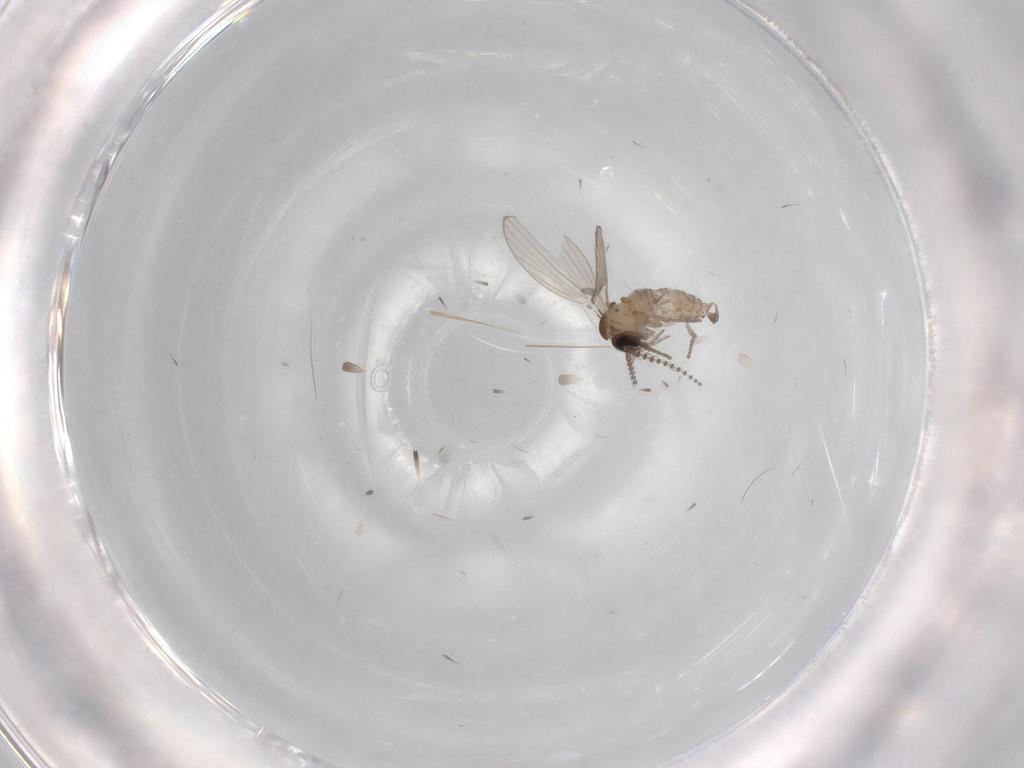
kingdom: Animalia
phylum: Arthropoda
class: Insecta
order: Diptera
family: Psychodidae
